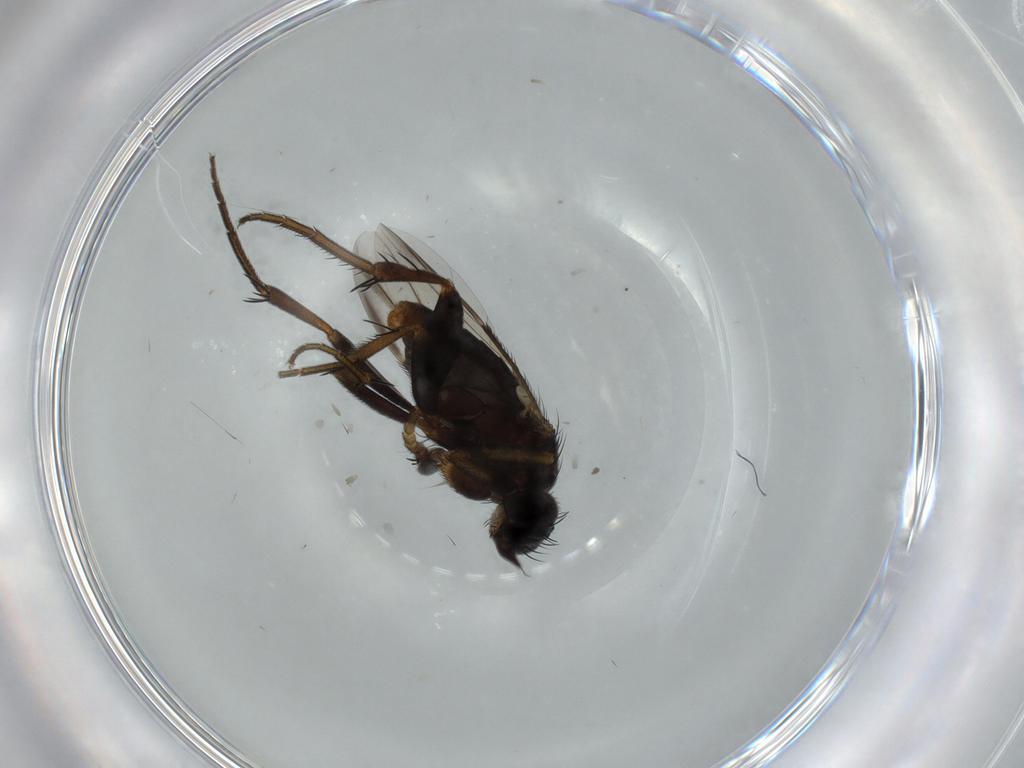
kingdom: Animalia
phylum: Arthropoda
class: Insecta
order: Diptera
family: Phoridae
